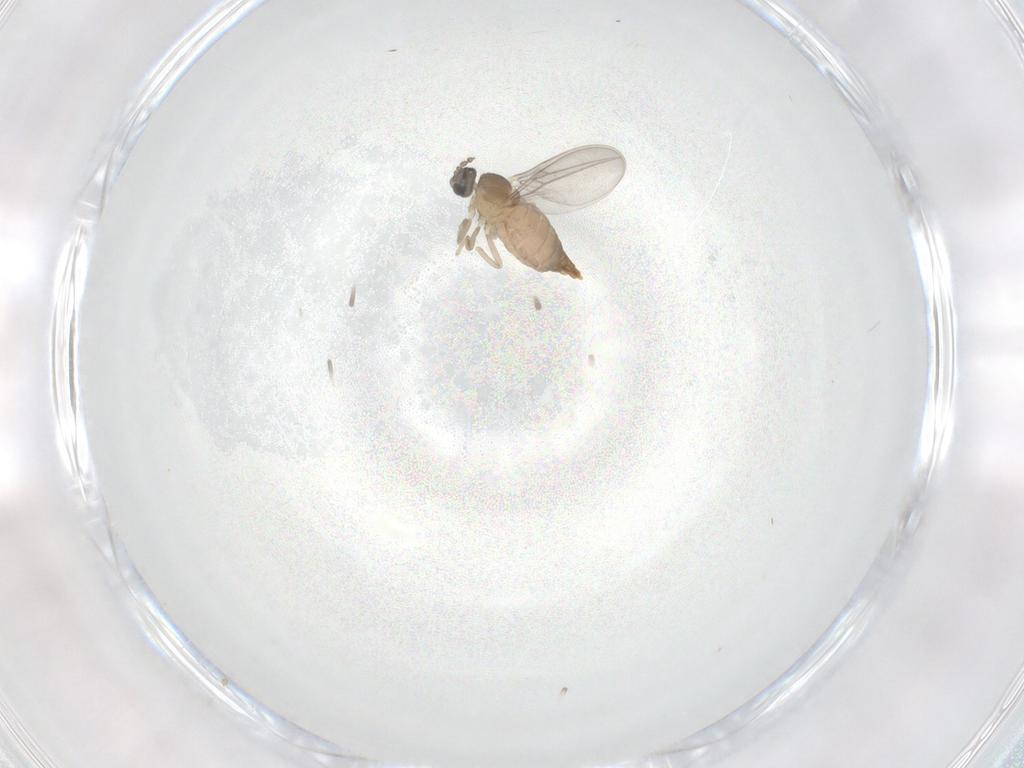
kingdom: Animalia
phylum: Arthropoda
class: Insecta
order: Diptera
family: Cecidomyiidae
